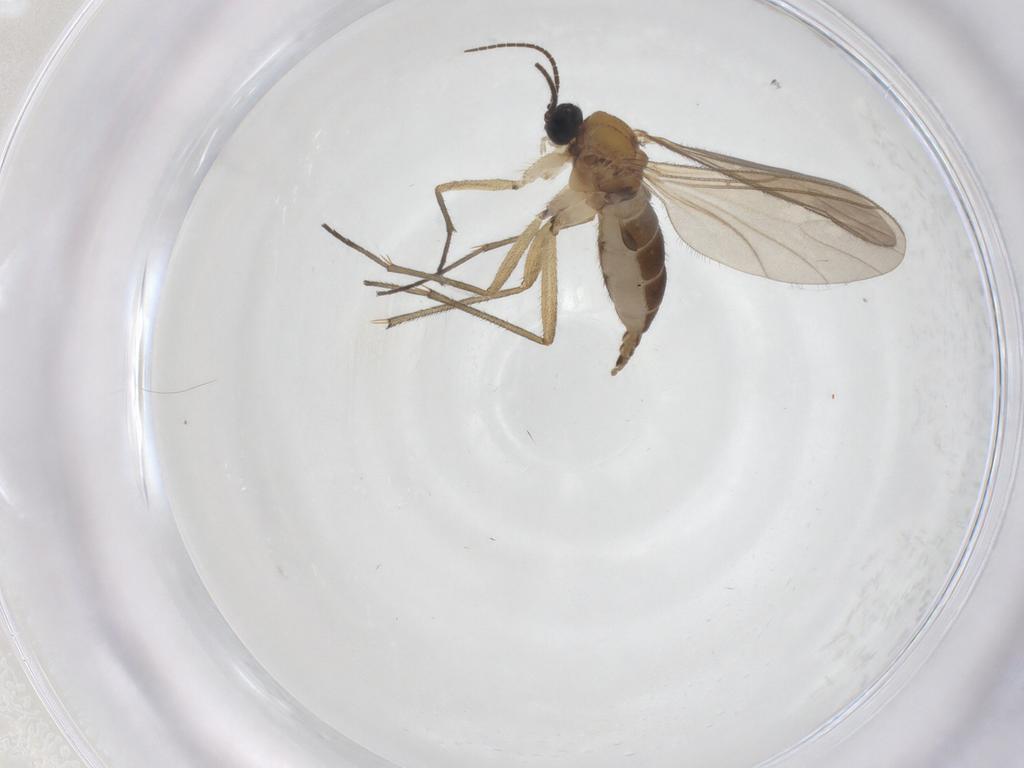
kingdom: Animalia
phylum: Arthropoda
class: Insecta
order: Diptera
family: Sciaridae
